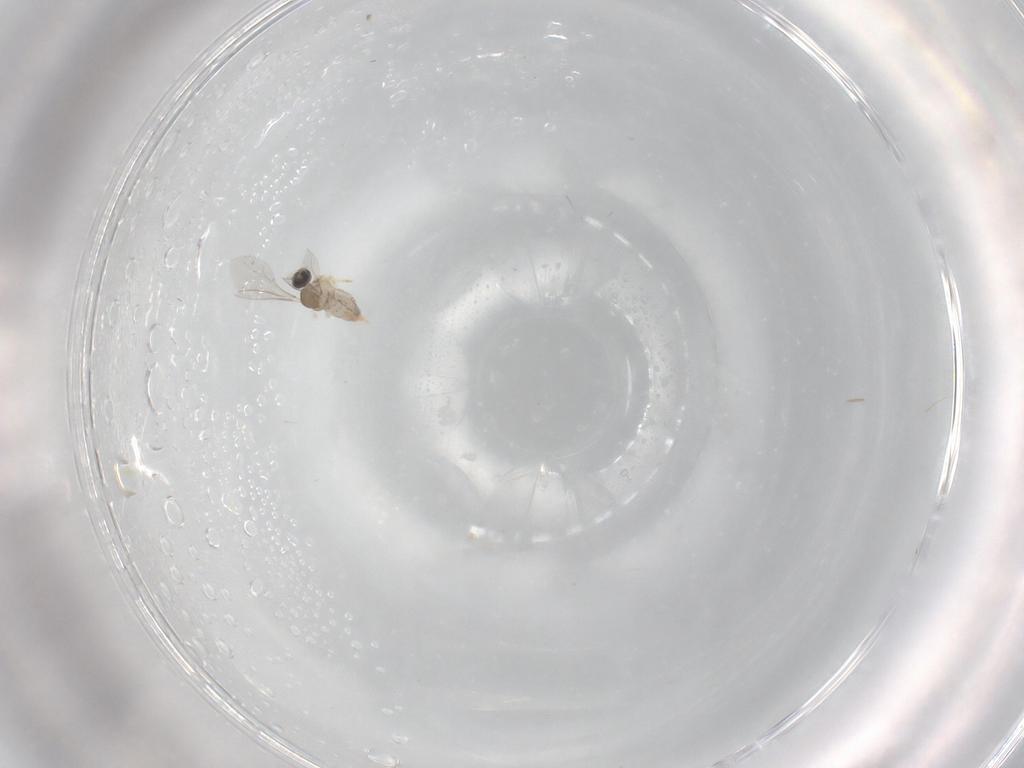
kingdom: Animalia
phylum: Arthropoda
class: Insecta
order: Diptera
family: Cecidomyiidae
